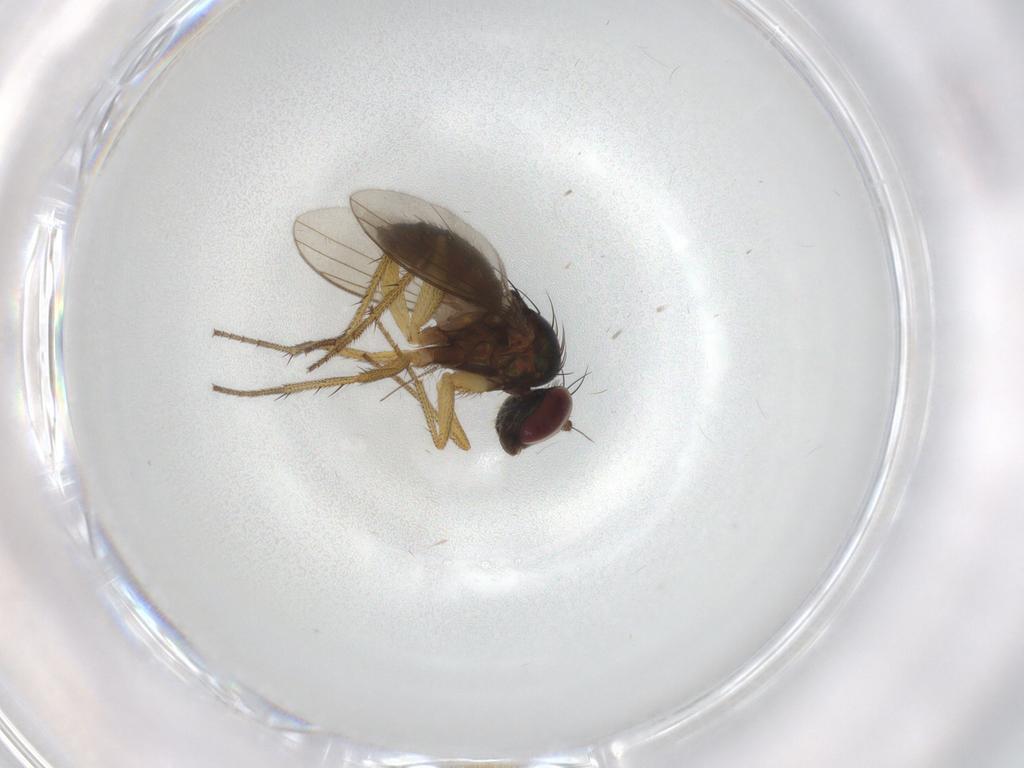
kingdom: Animalia
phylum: Arthropoda
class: Insecta
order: Diptera
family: Dolichopodidae
